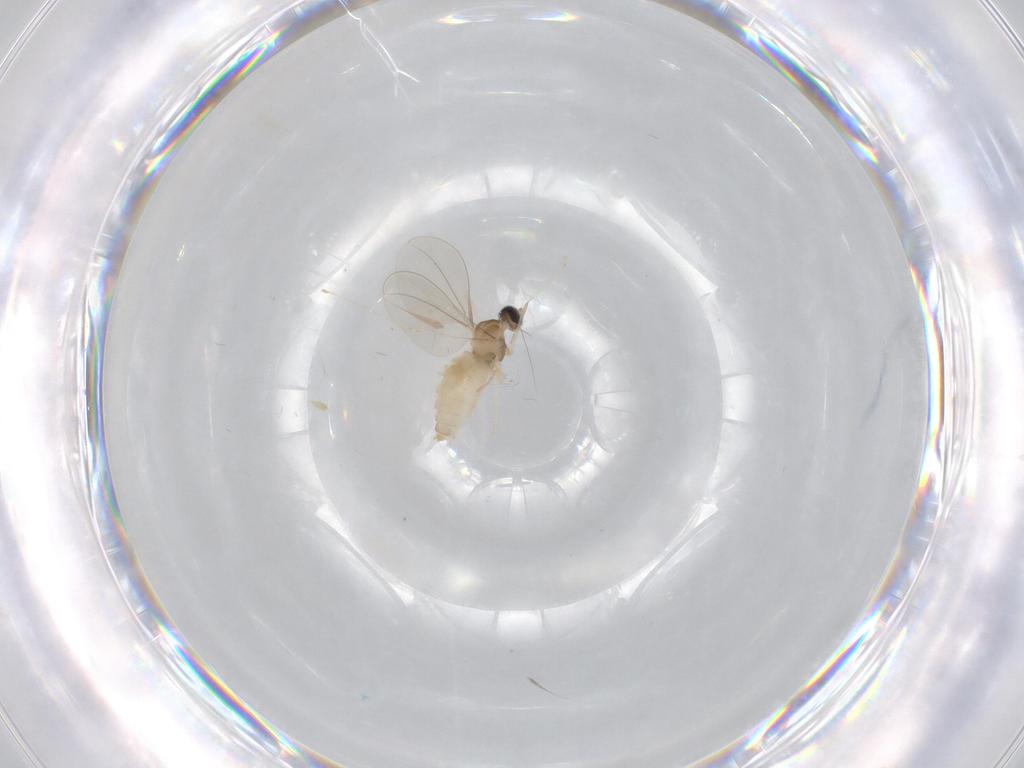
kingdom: Animalia
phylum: Arthropoda
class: Insecta
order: Diptera
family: Cecidomyiidae
